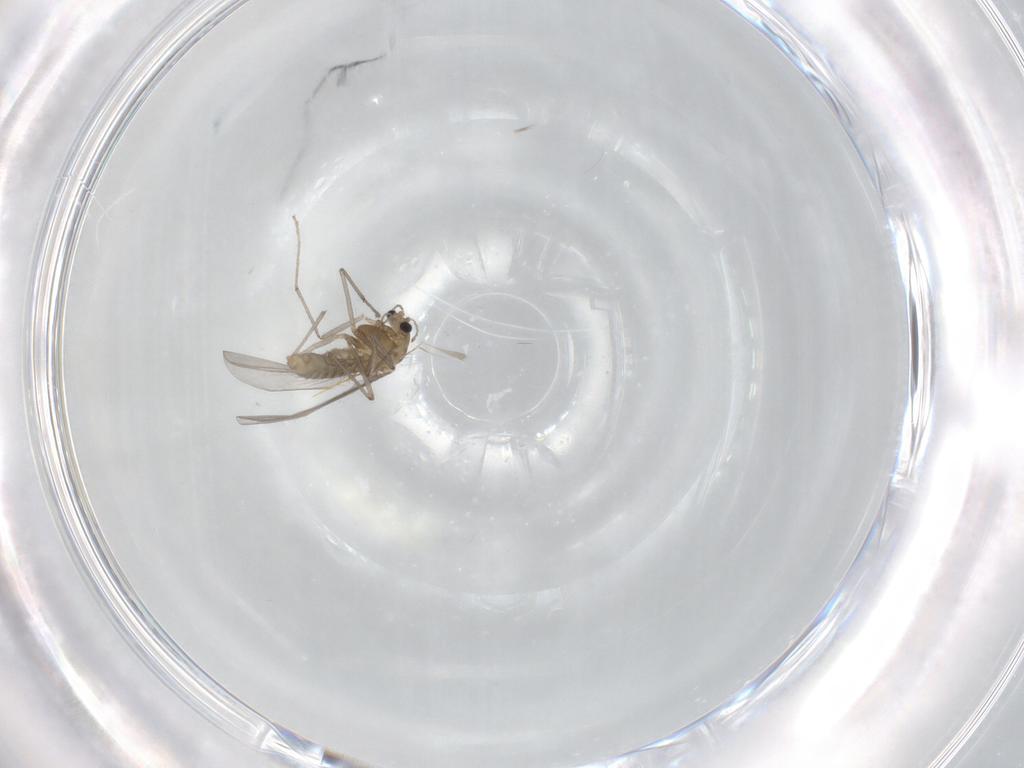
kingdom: Animalia
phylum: Arthropoda
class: Insecta
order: Diptera
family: Chironomidae
